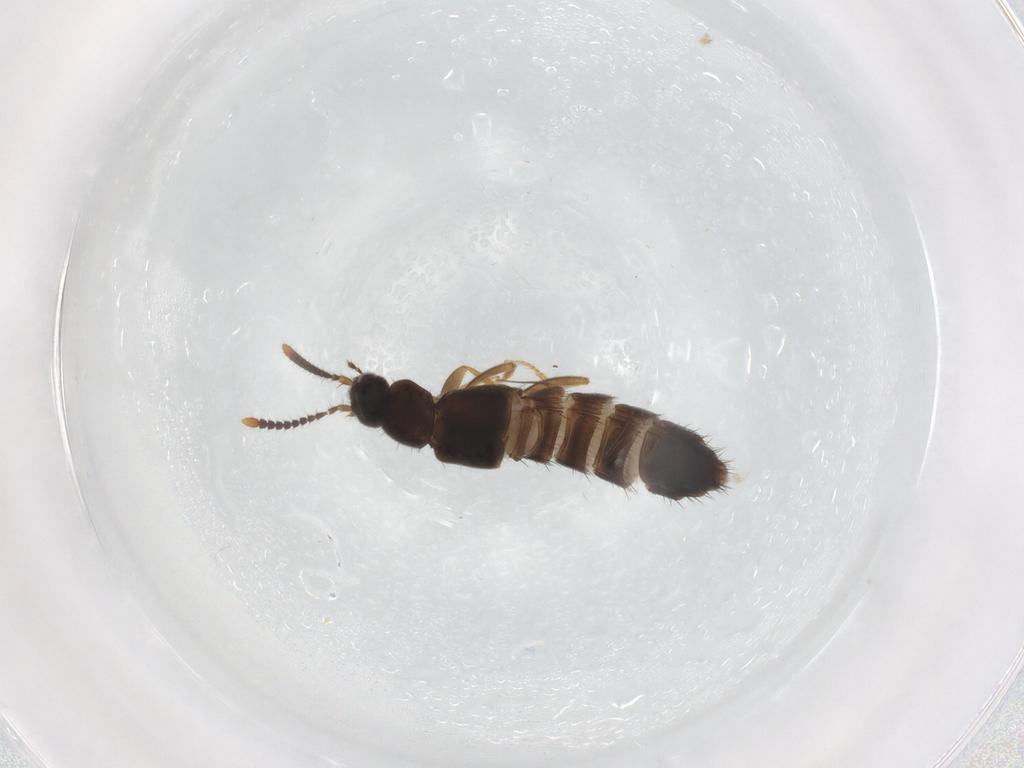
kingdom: Animalia
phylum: Arthropoda
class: Insecta
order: Coleoptera
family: Staphylinidae
